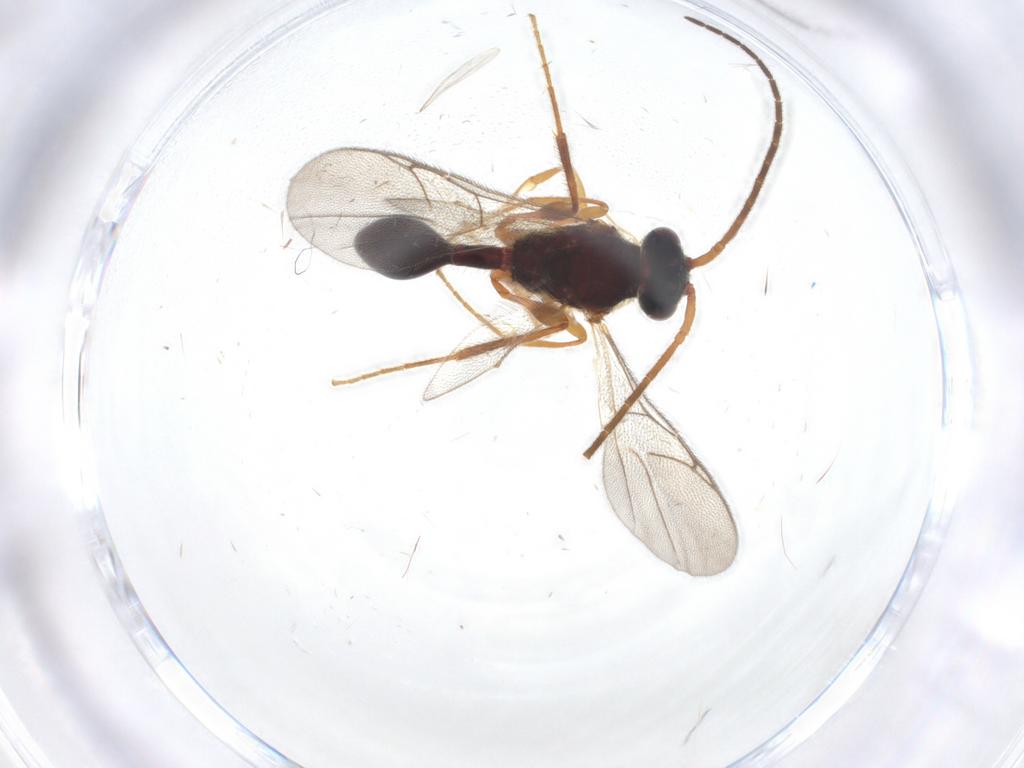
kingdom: Animalia
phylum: Arthropoda
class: Insecta
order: Hymenoptera
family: Diapriidae
